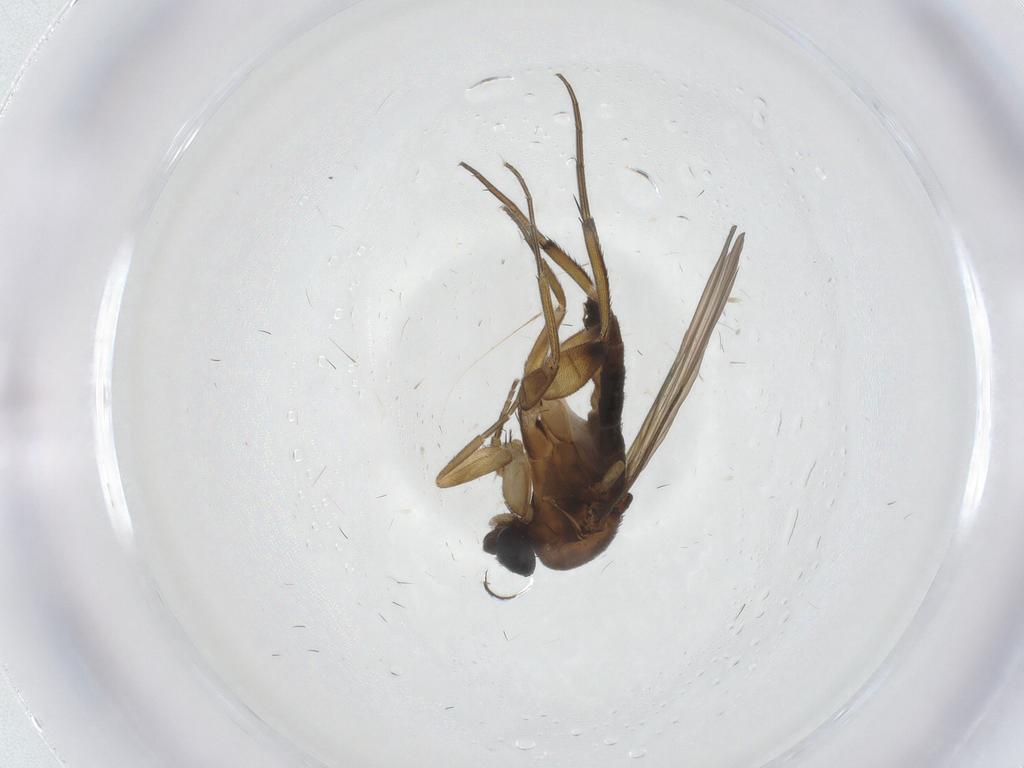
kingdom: Animalia
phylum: Arthropoda
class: Insecta
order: Diptera
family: Phoridae
